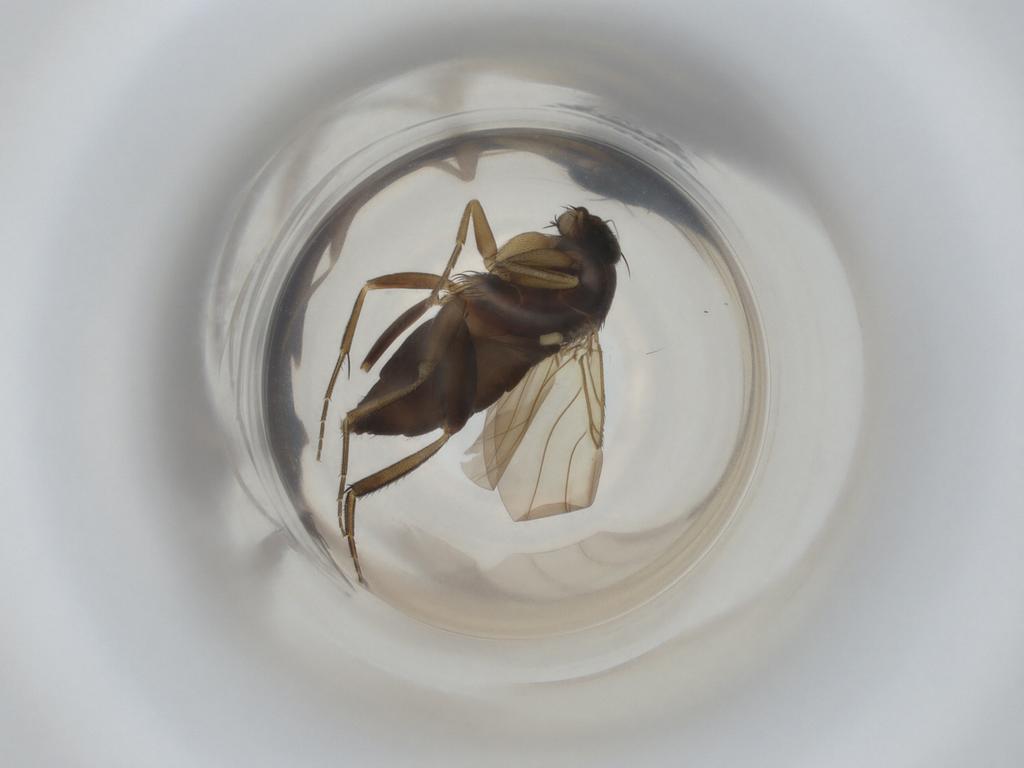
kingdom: Animalia
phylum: Arthropoda
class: Insecta
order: Diptera
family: Phoridae
